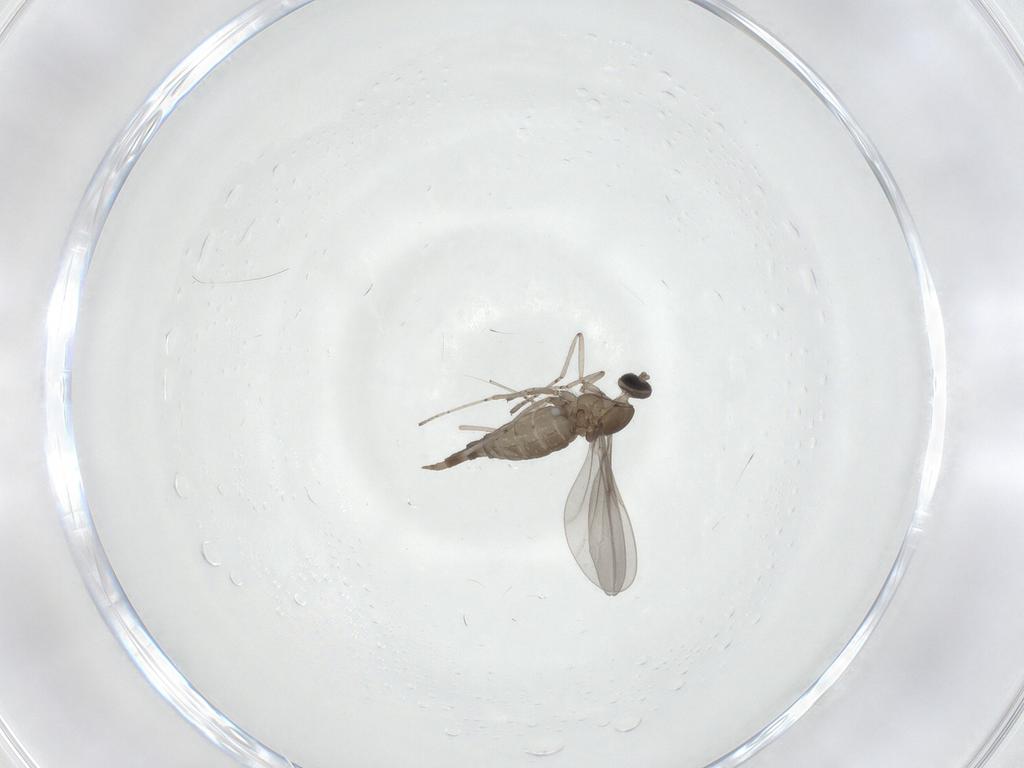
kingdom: Animalia
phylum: Arthropoda
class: Insecta
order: Diptera
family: Cecidomyiidae
